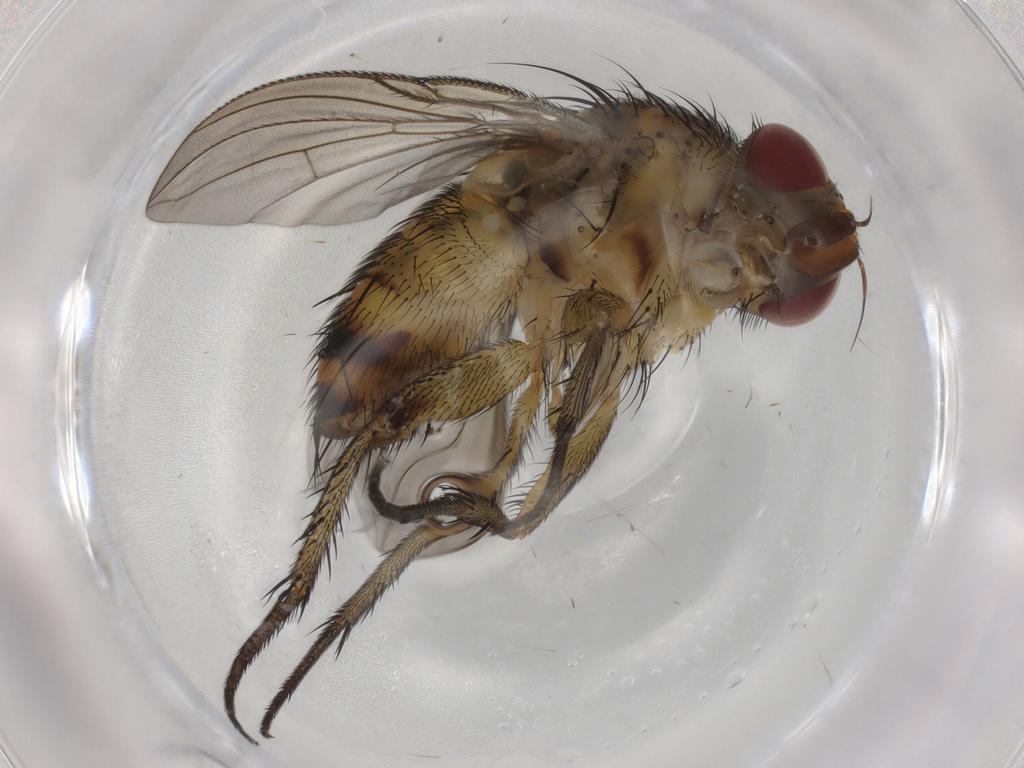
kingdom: Animalia
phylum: Arthropoda
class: Insecta
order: Diptera
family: Tachinidae
